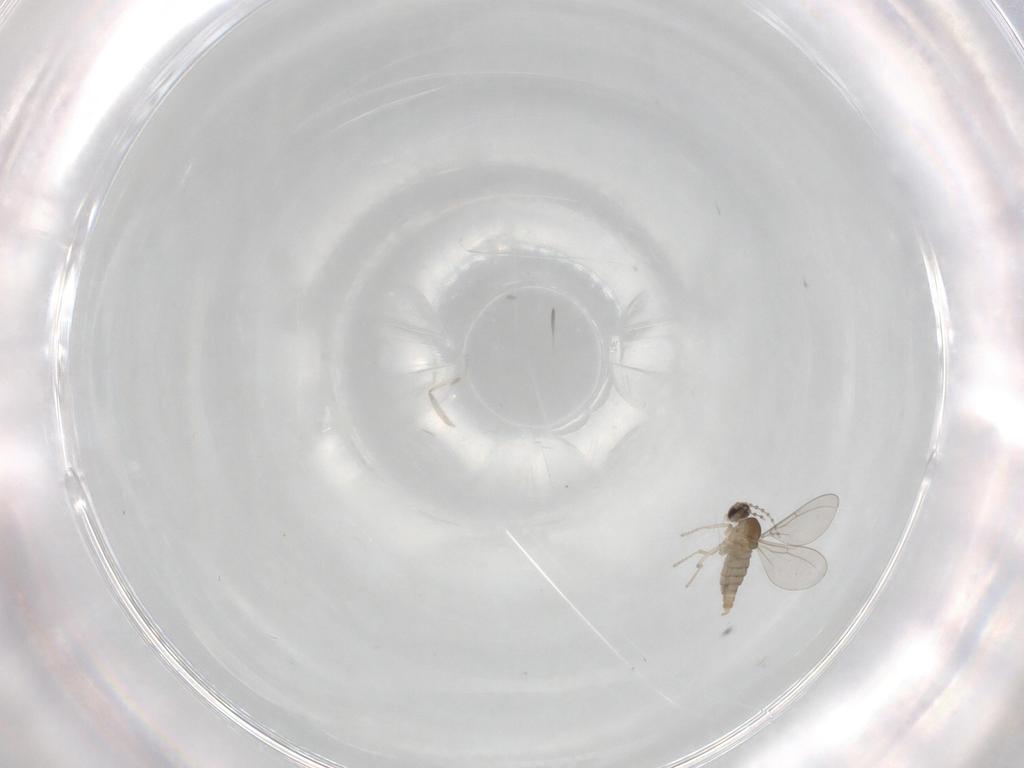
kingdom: Animalia
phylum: Arthropoda
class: Insecta
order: Diptera
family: Cecidomyiidae
